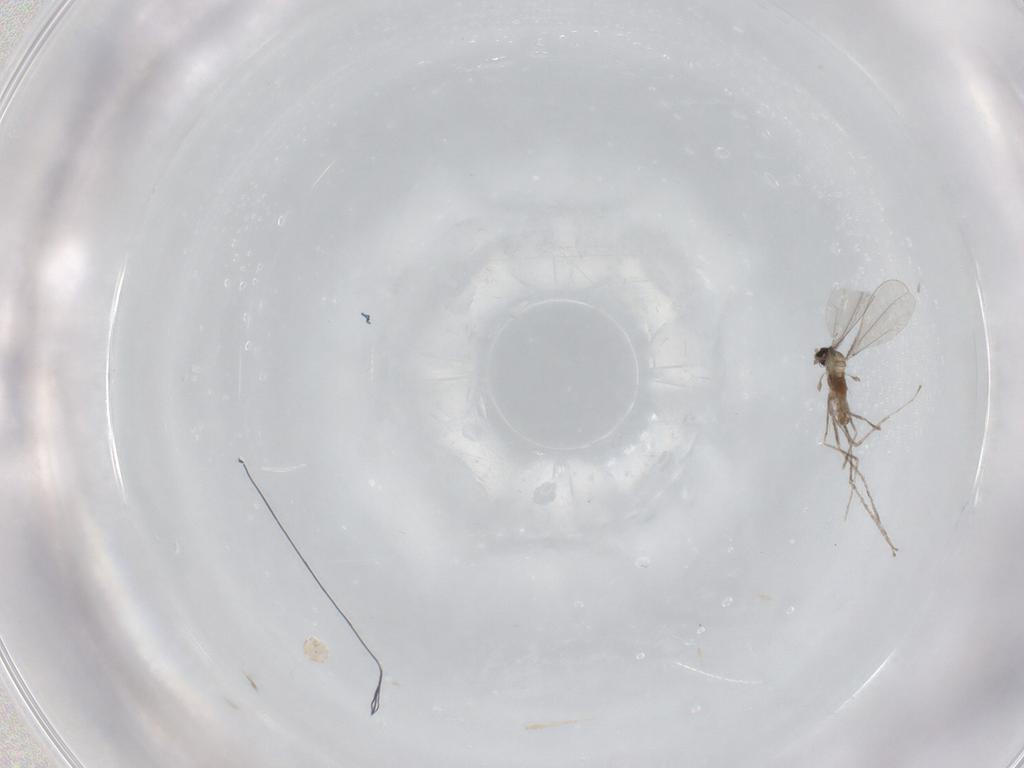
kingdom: Animalia
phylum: Arthropoda
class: Insecta
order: Diptera
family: Cecidomyiidae
